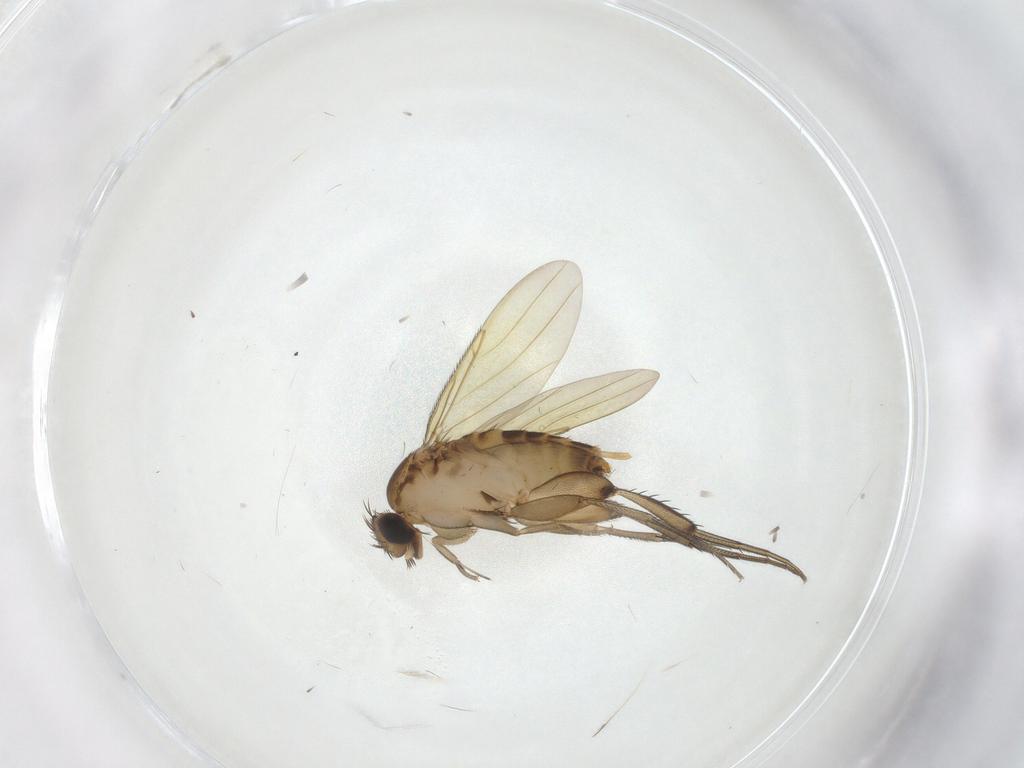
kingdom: Animalia
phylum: Arthropoda
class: Insecta
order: Diptera
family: Phoridae
